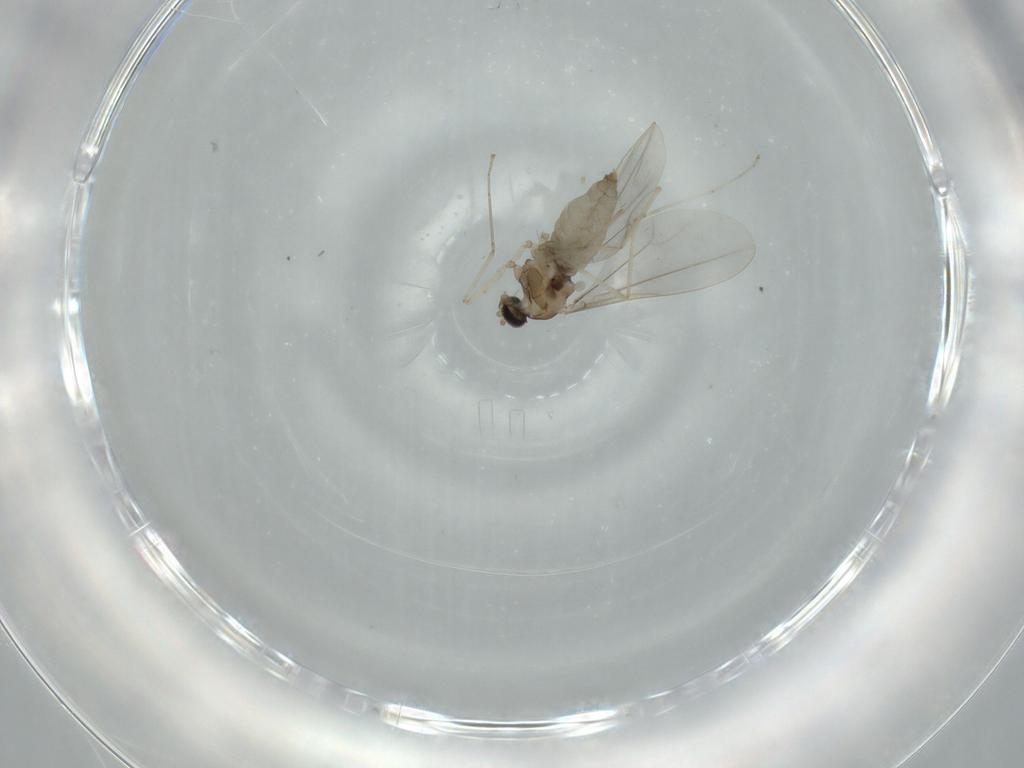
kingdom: Animalia
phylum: Arthropoda
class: Insecta
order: Diptera
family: Cecidomyiidae
